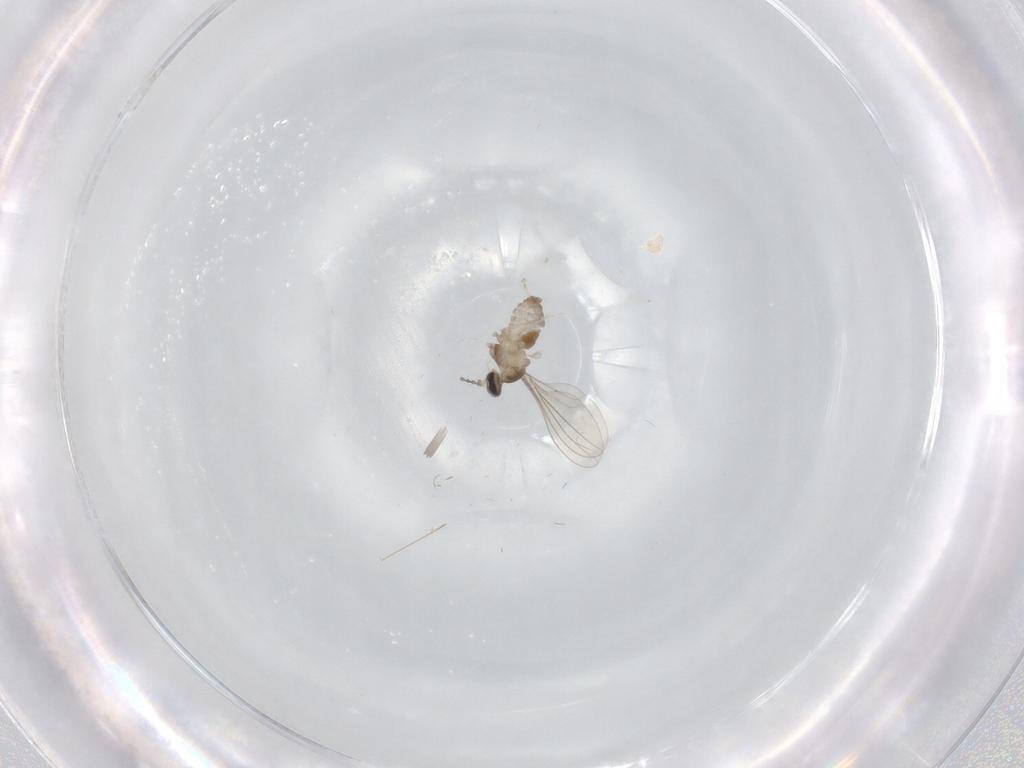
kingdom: Animalia
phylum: Arthropoda
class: Insecta
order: Diptera
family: Cecidomyiidae
